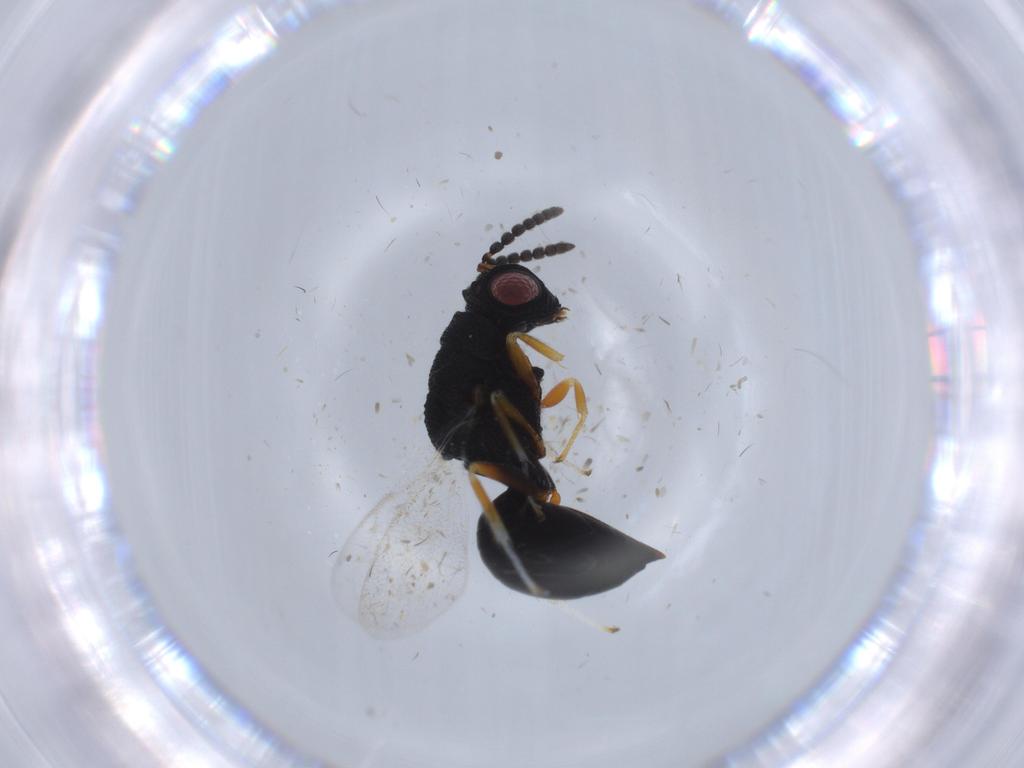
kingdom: Animalia
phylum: Arthropoda
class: Insecta
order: Hymenoptera
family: Eurytomidae
